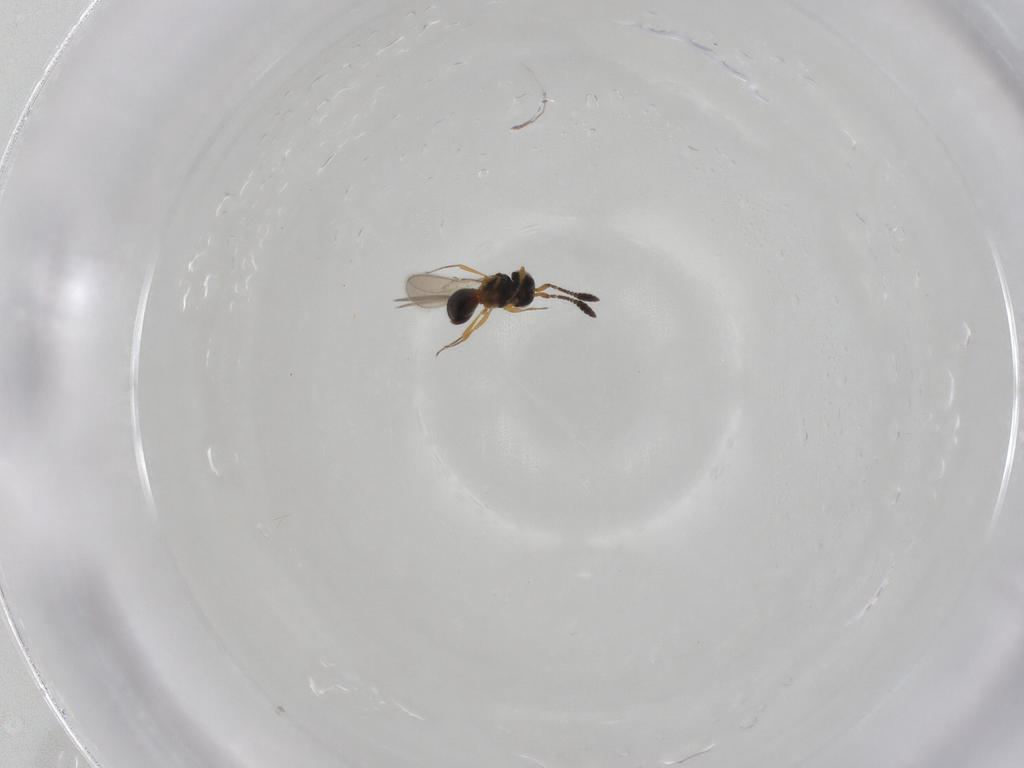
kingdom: Animalia
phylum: Arthropoda
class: Insecta
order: Hymenoptera
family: Scelionidae
